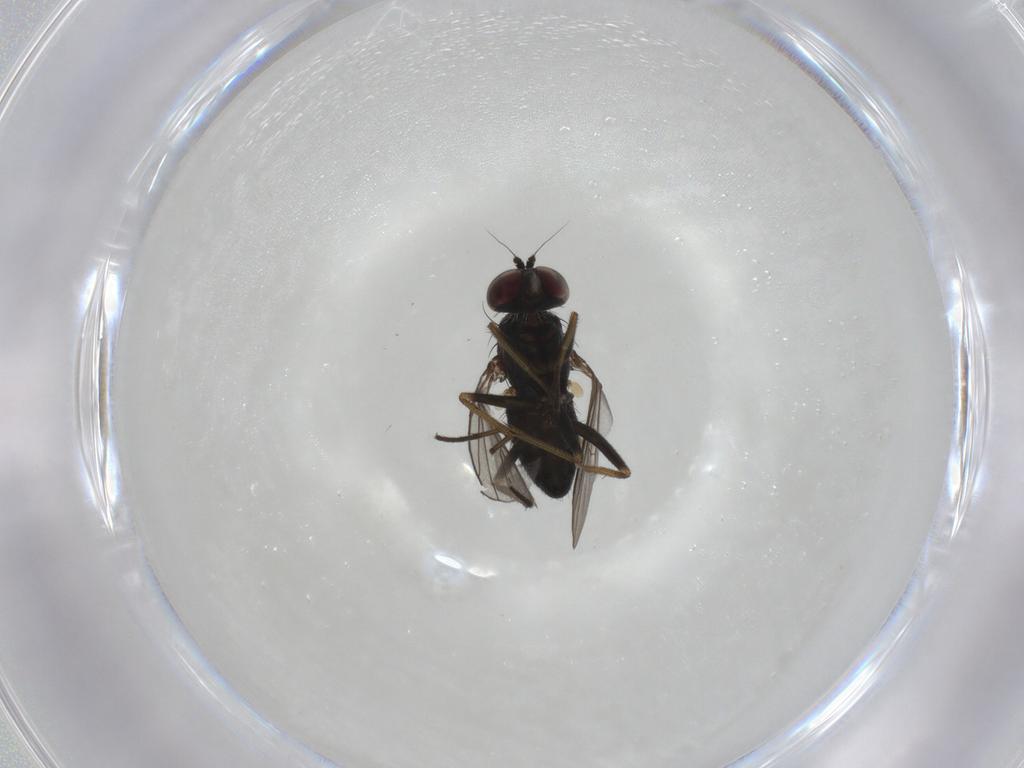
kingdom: Animalia
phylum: Arthropoda
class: Insecta
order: Diptera
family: Dolichopodidae
